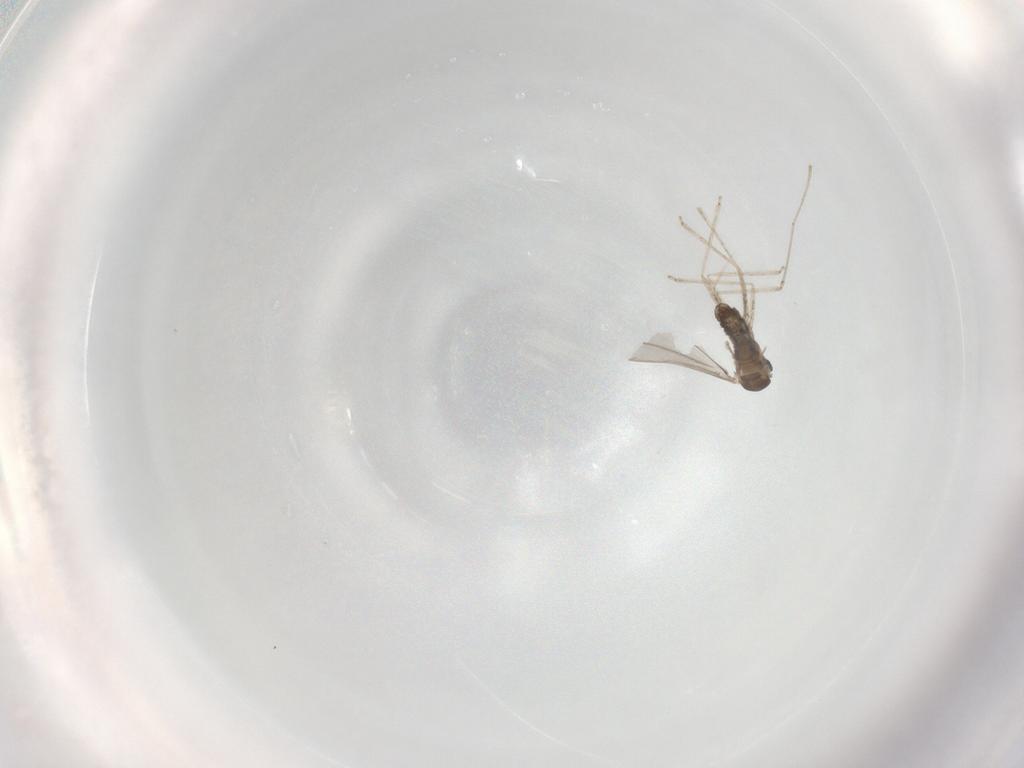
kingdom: Animalia
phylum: Arthropoda
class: Insecta
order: Diptera
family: Cecidomyiidae
